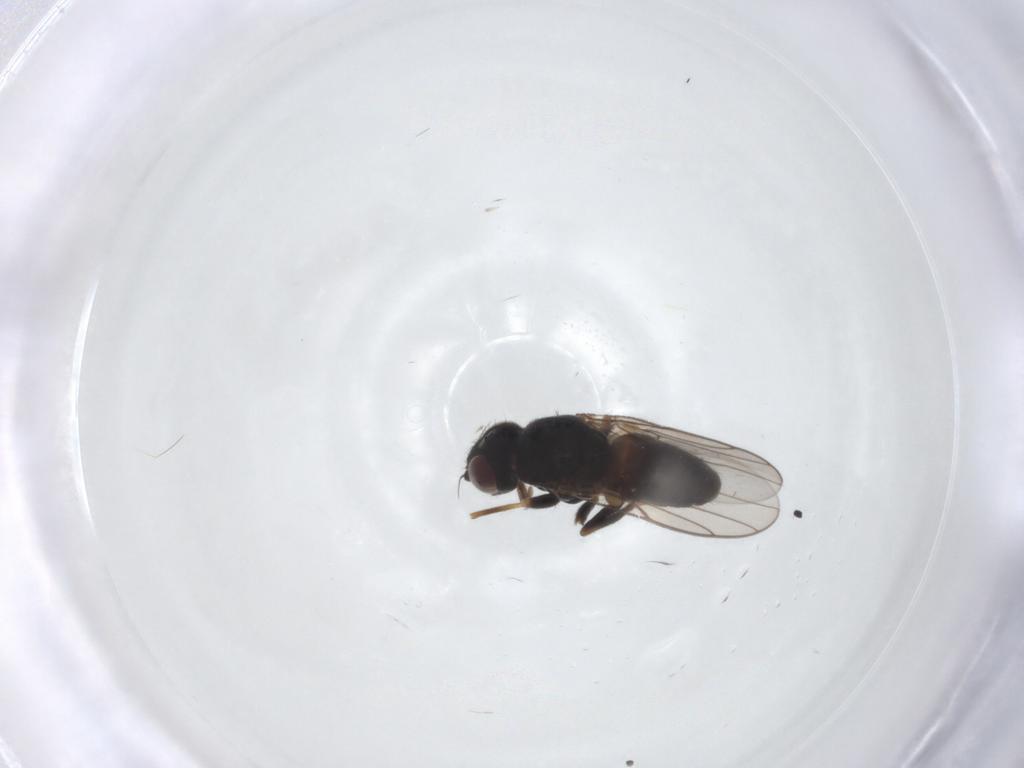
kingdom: Animalia
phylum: Arthropoda
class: Insecta
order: Diptera
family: Chloropidae
